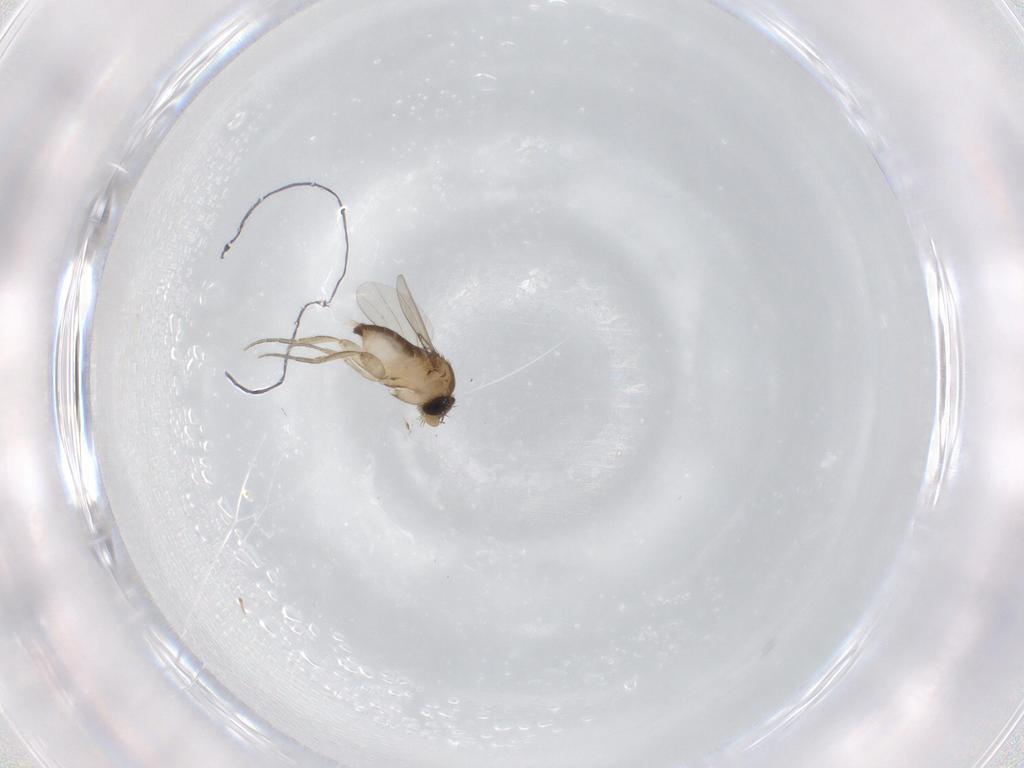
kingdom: Animalia
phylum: Arthropoda
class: Insecta
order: Diptera
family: Phoridae
